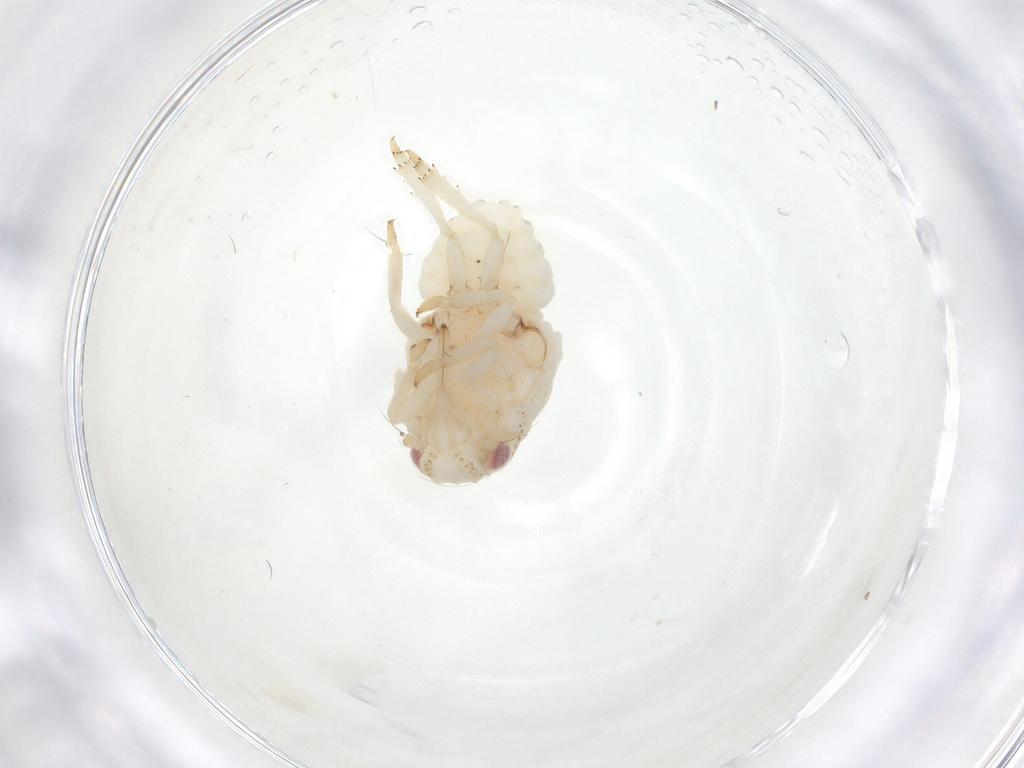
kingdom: Animalia
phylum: Arthropoda
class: Insecta
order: Hemiptera
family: Acanaloniidae
